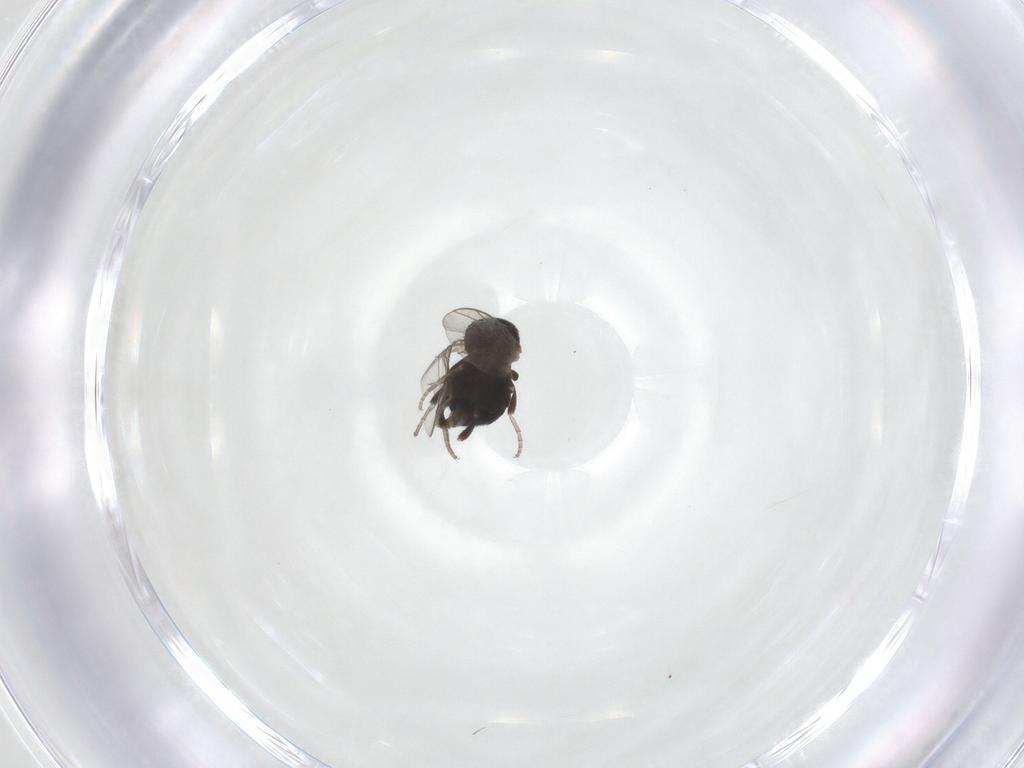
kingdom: Animalia
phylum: Arthropoda
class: Insecta
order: Diptera
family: Cryptochetidae
